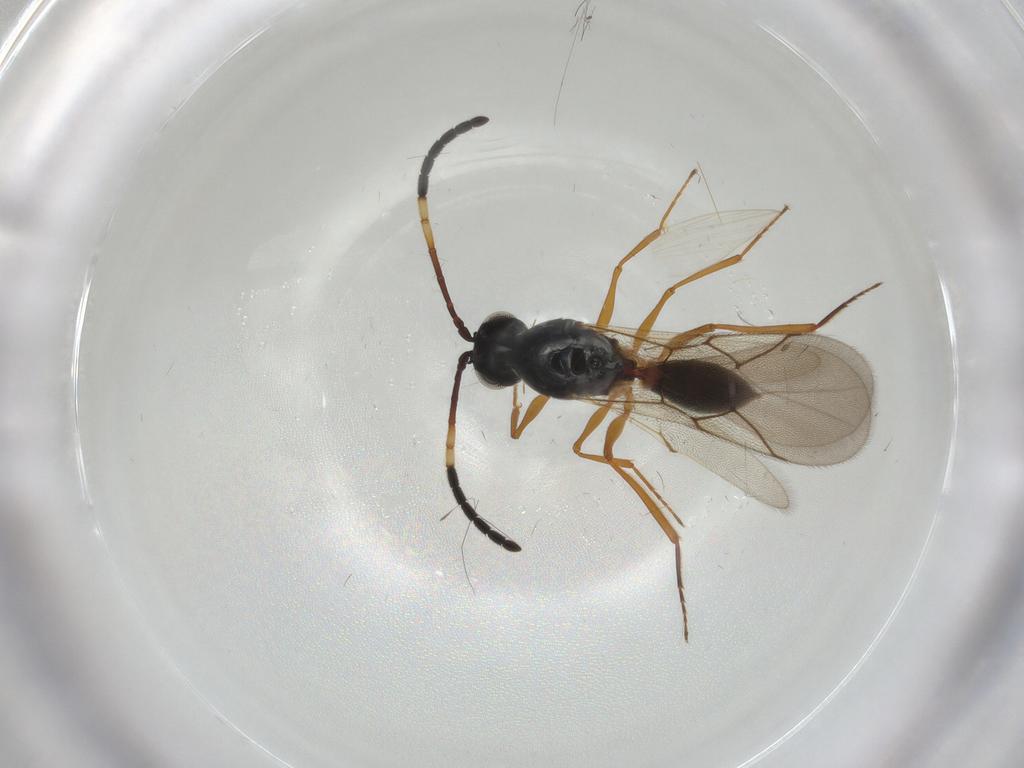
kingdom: Animalia
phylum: Arthropoda
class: Insecta
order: Hymenoptera
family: Figitidae
